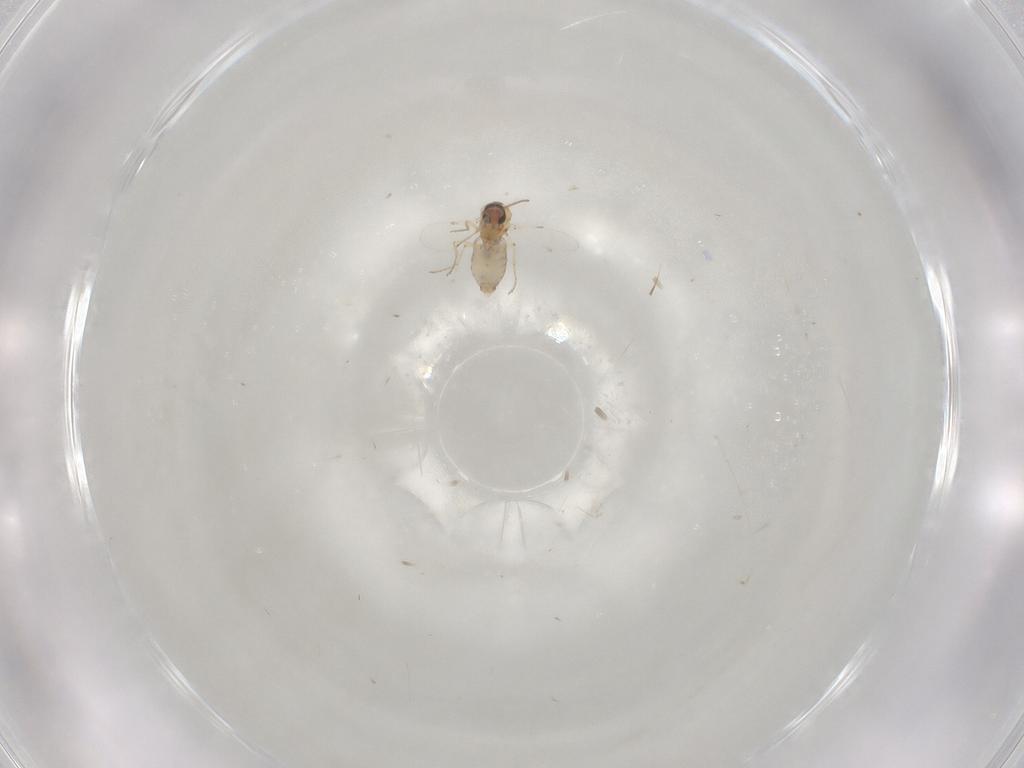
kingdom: Animalia
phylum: Arthropoda
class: Insecta
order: Diptera
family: Ceratopogonidae
